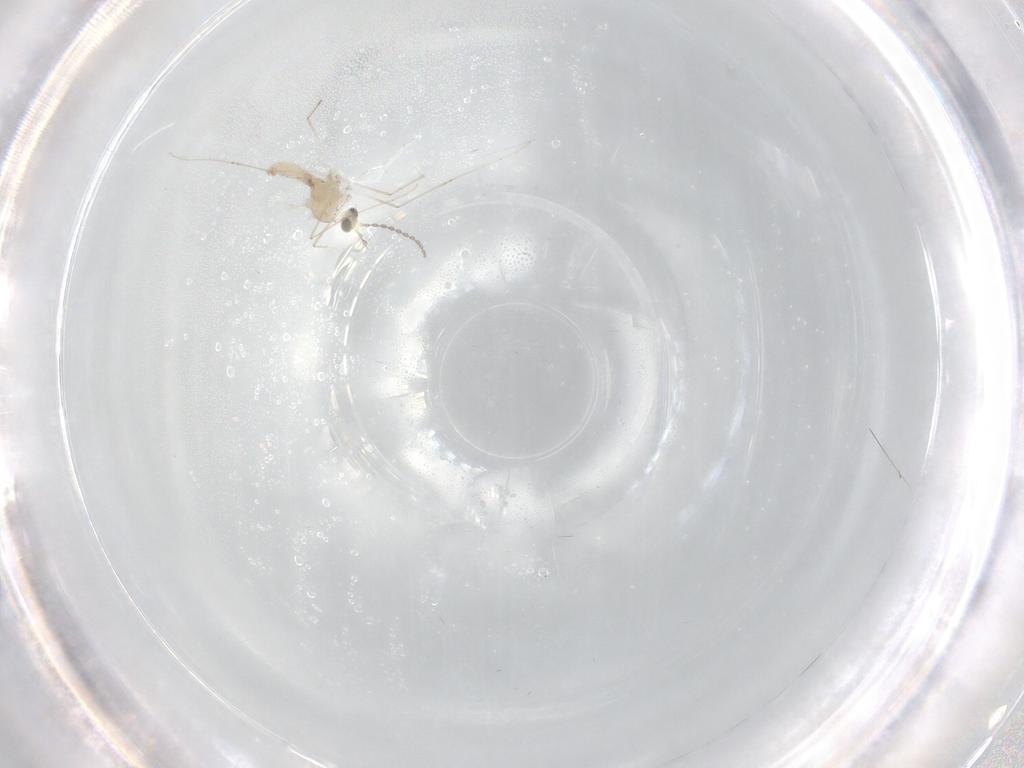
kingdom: Animalia
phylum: Arthropoda
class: Insecta
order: Diptera
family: Cecidomyiidae
